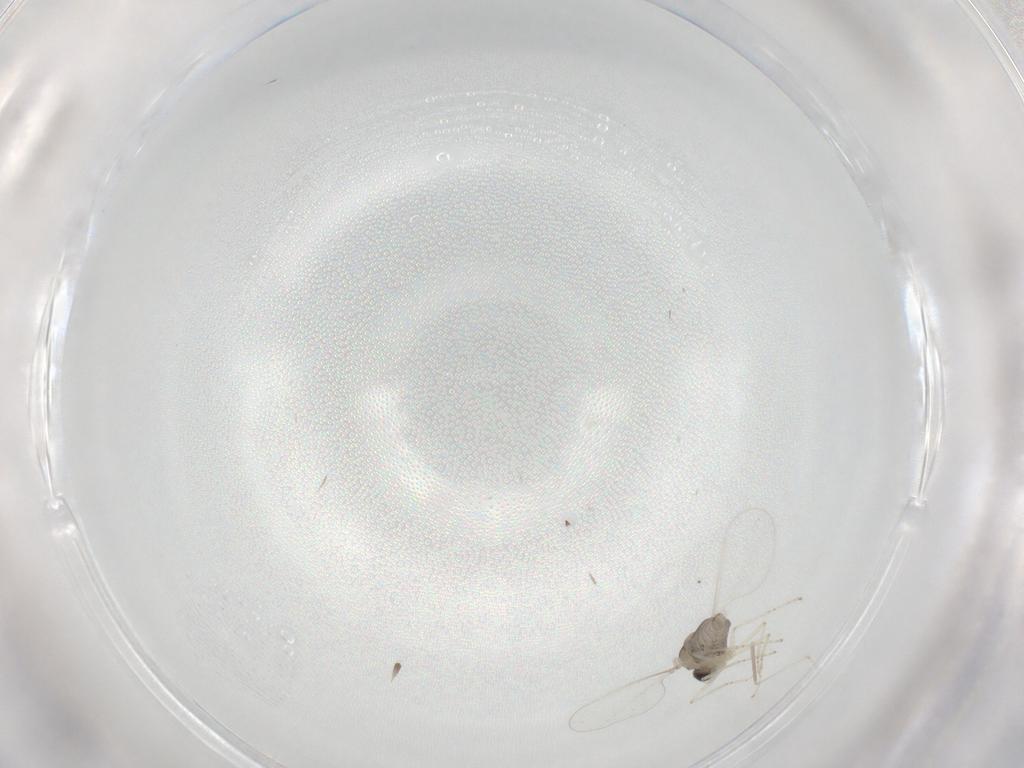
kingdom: Animalia
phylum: Arthropoda
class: Insecta
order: Diptera
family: Cecidomyiidae
